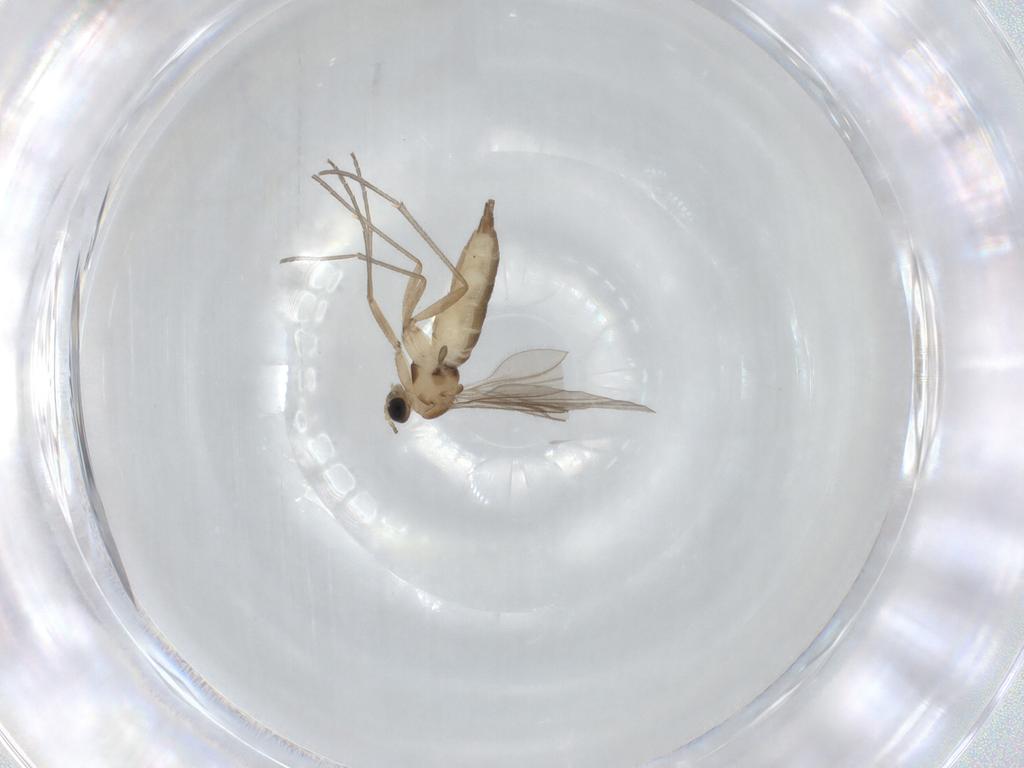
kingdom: Animalia
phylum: Arthropoda
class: Insecta
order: Diptera
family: Sciaridae
